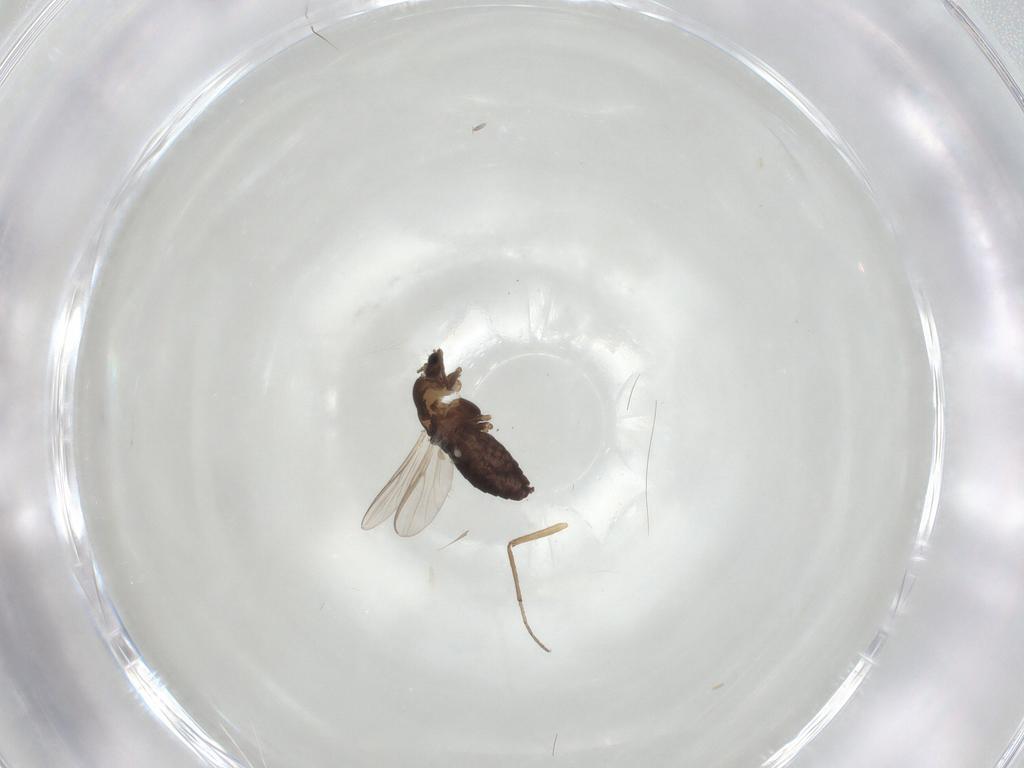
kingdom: Animalia
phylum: Arthropoda
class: Insecta
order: Diptera
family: Chironomidae
